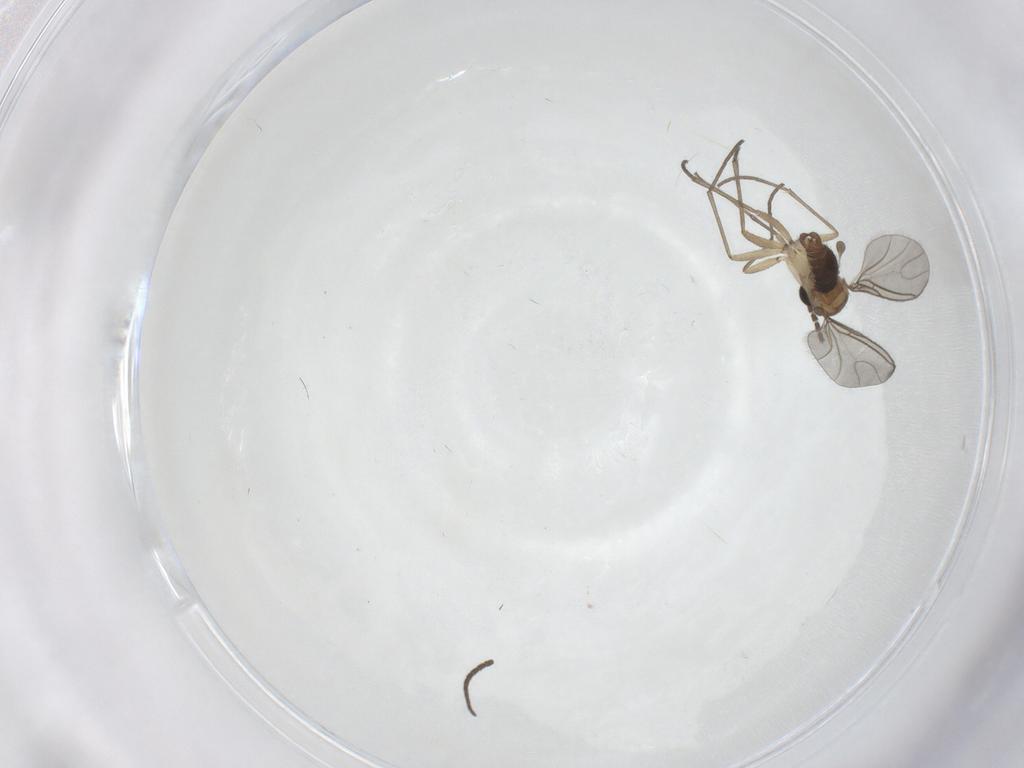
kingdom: Animalia
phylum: Arthropoda
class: Insecta
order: Diptera
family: Sciaridae
